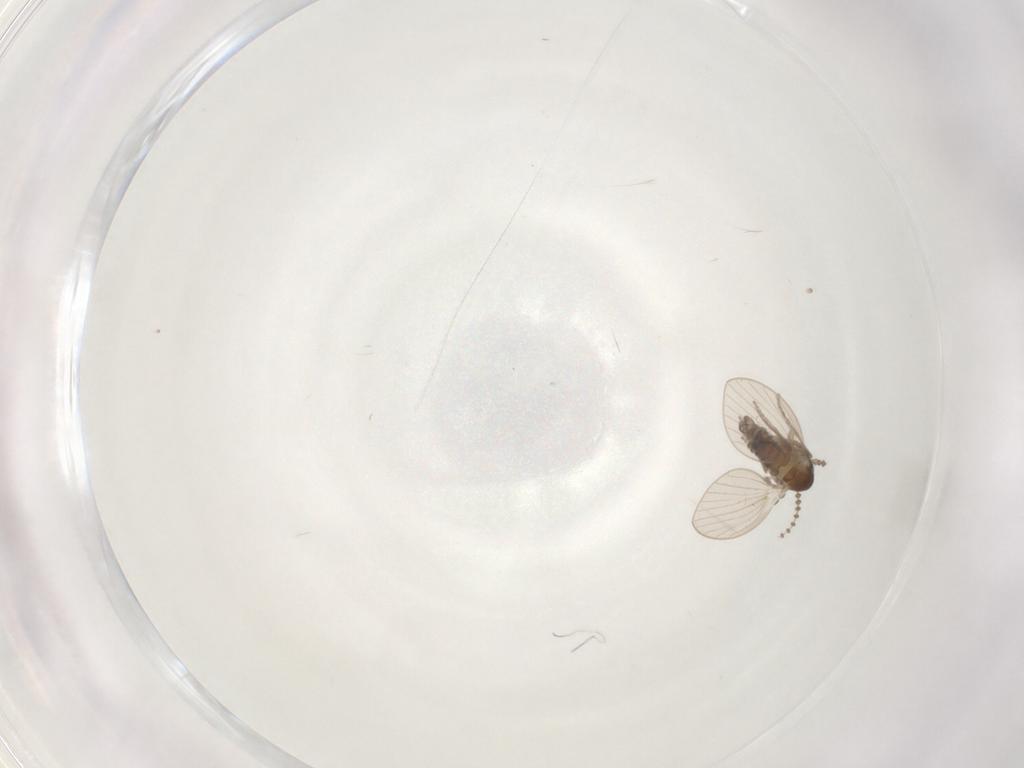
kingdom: Animalia
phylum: Arthropoda
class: Insecta
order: Diptera
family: Psychodidae
